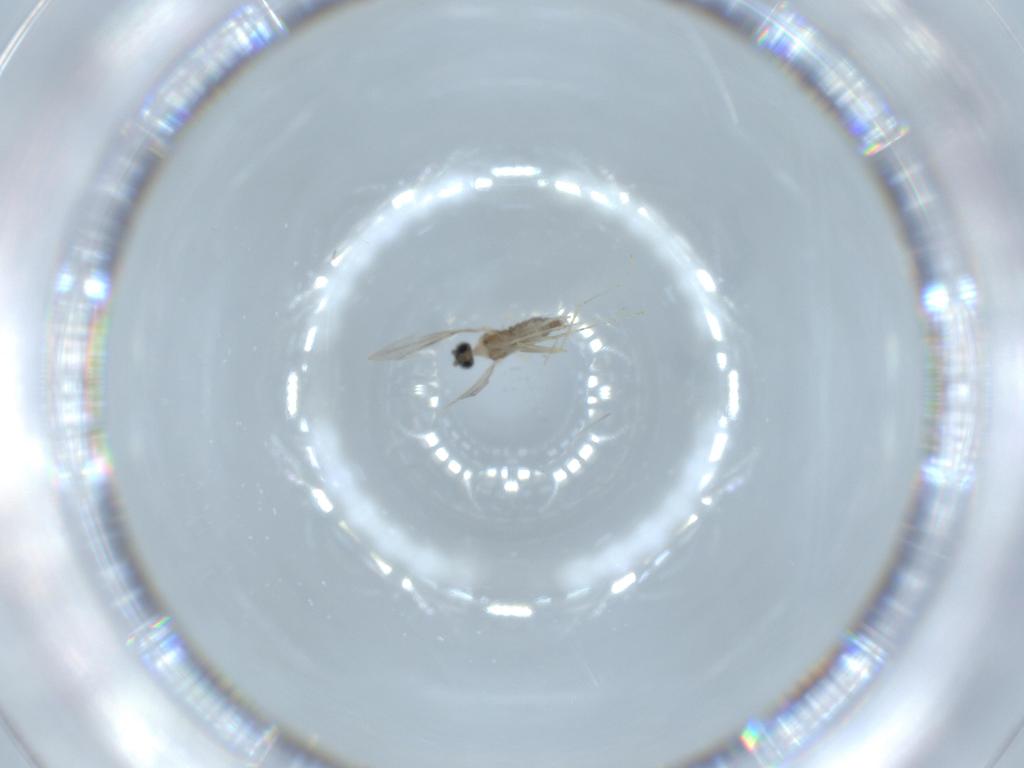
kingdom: Animalia
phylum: Arthropoda
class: Insecta
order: Diptera
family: Cecidomyiidae
